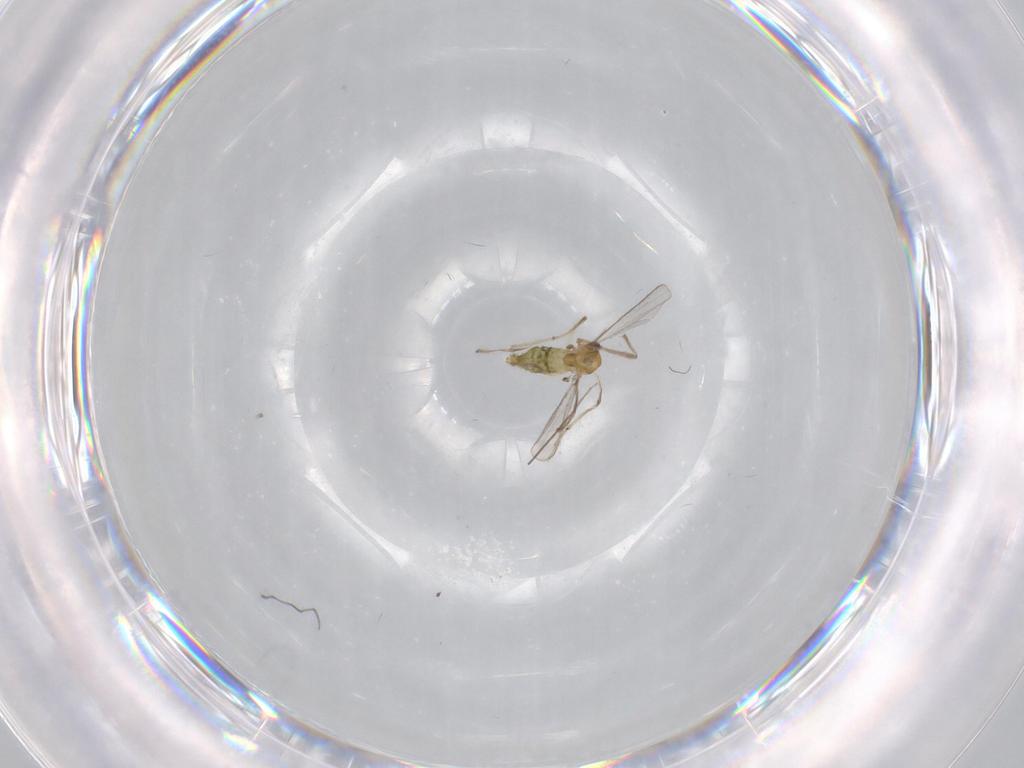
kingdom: Animalia
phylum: Arthropoda
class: Insecta
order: Diptera
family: Chironomidae
